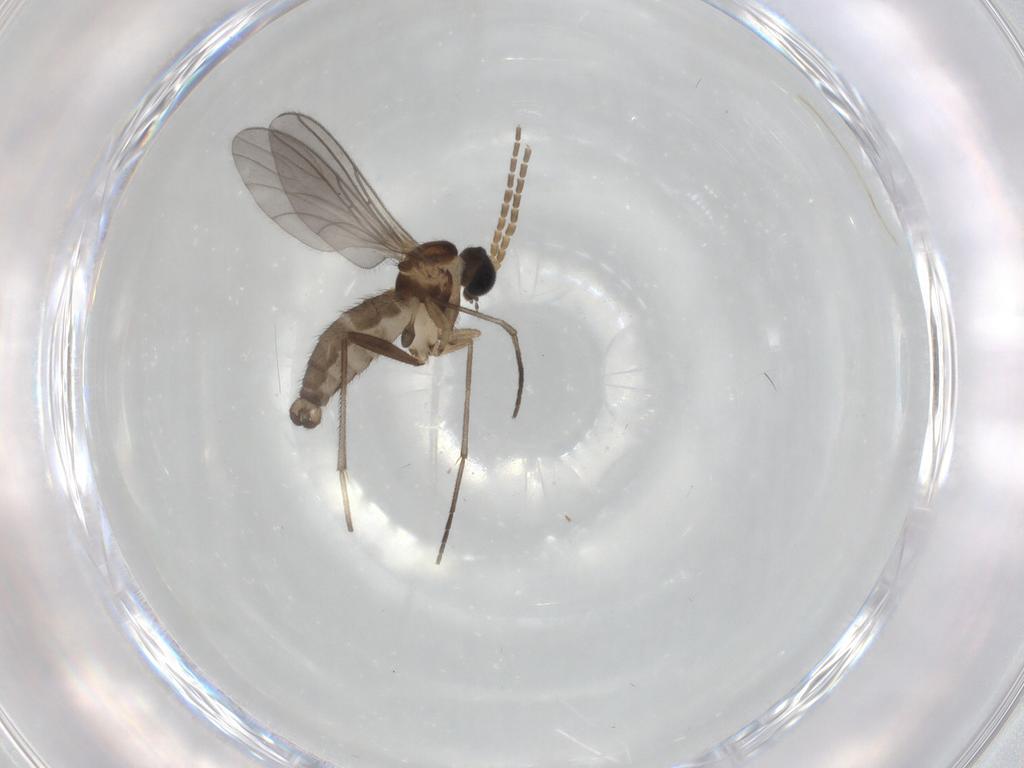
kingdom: Animalia
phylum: Arthropoda
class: Insecta
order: Diptera
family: Sciaridae
